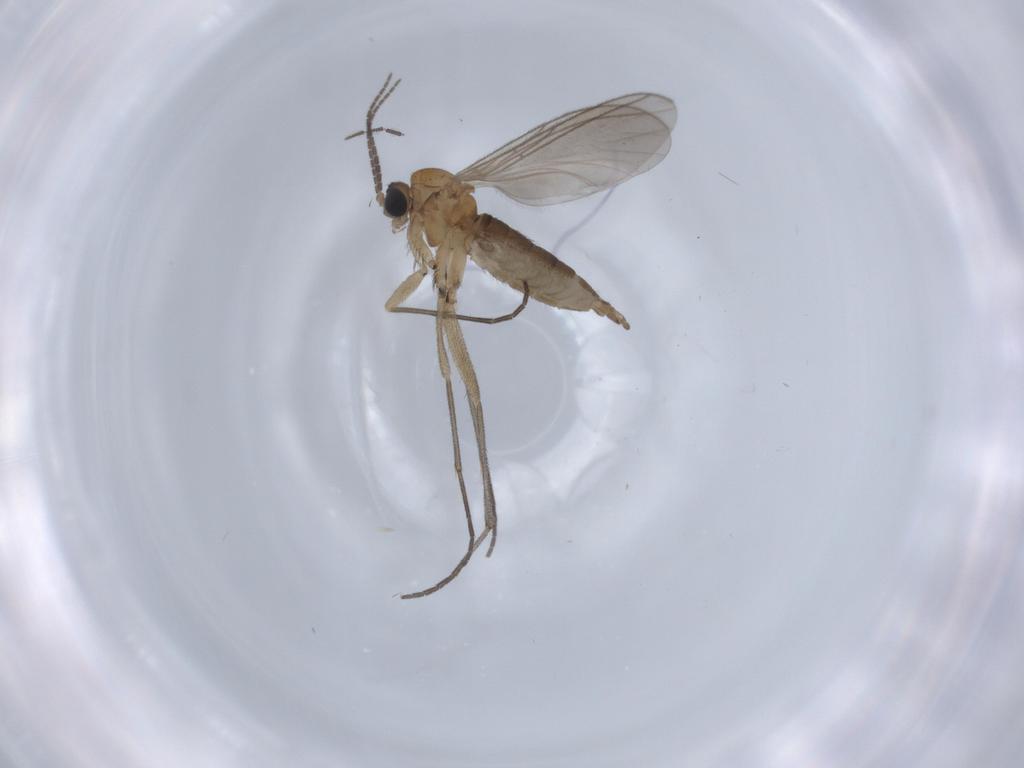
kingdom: Animalia
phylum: Arthropoda
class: Insecta
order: Diptera
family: Sciaridae
